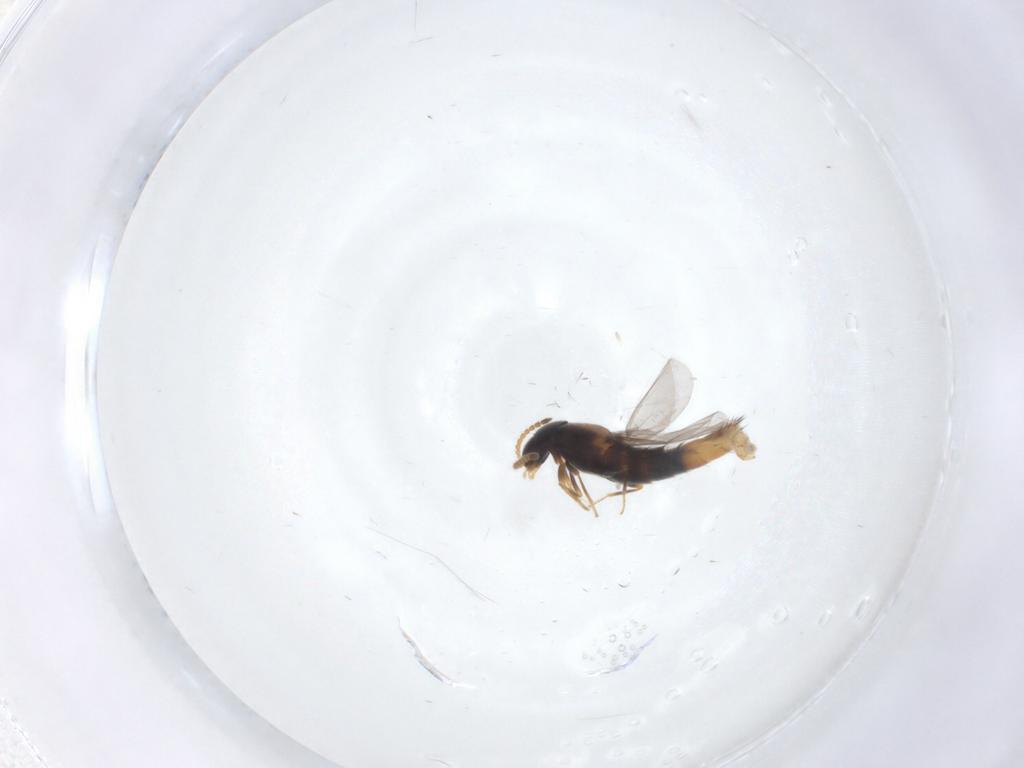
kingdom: Animalia
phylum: Arthropoda
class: Insecta
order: Coleoptera
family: Staphylinidae
